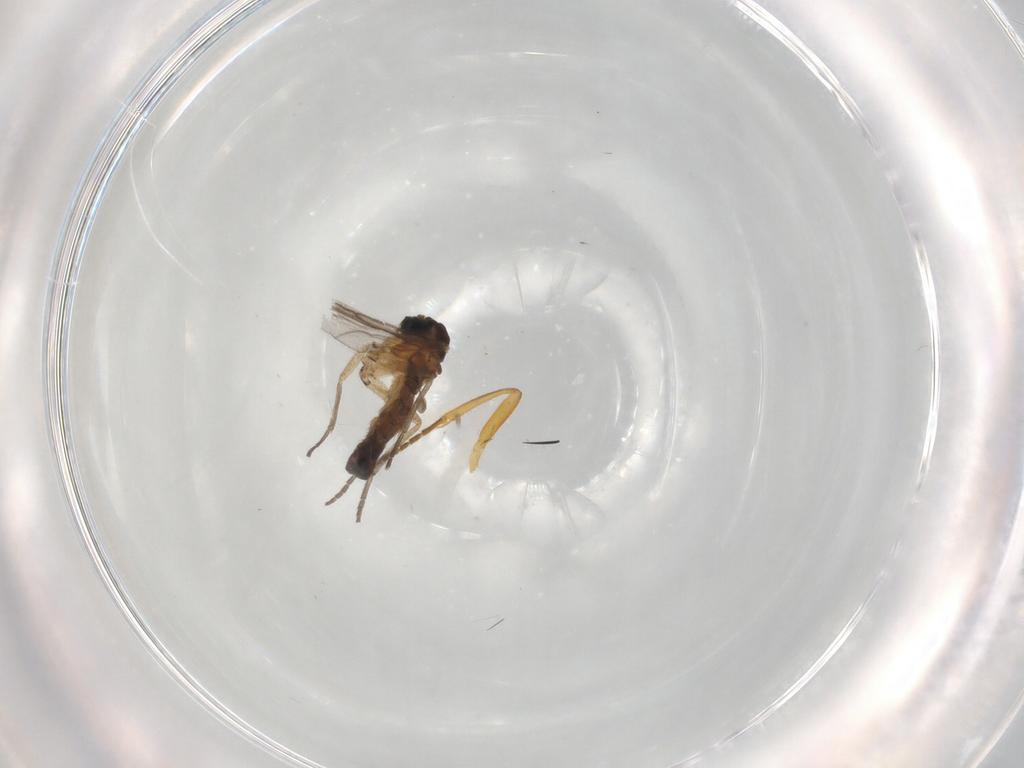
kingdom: Animalia
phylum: Arthropoda
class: Insecta
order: Diptera
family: Sciaridae
